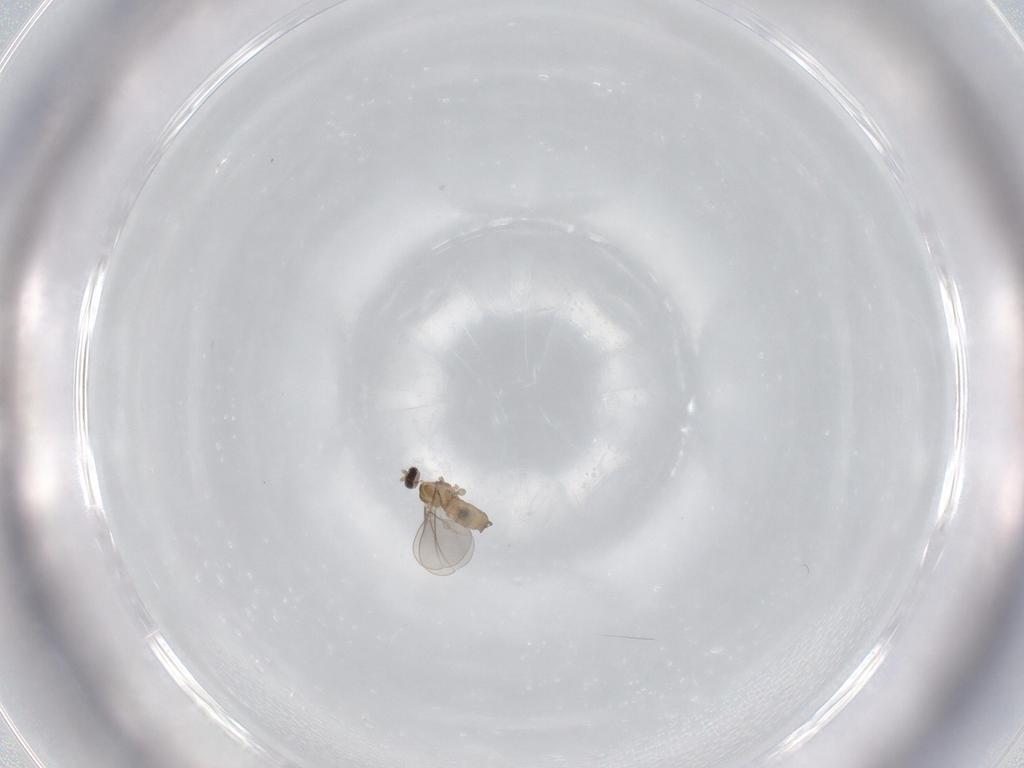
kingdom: Animalia
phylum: Arthropoda
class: Insecta
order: Diptera
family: Cecidomyiidae
